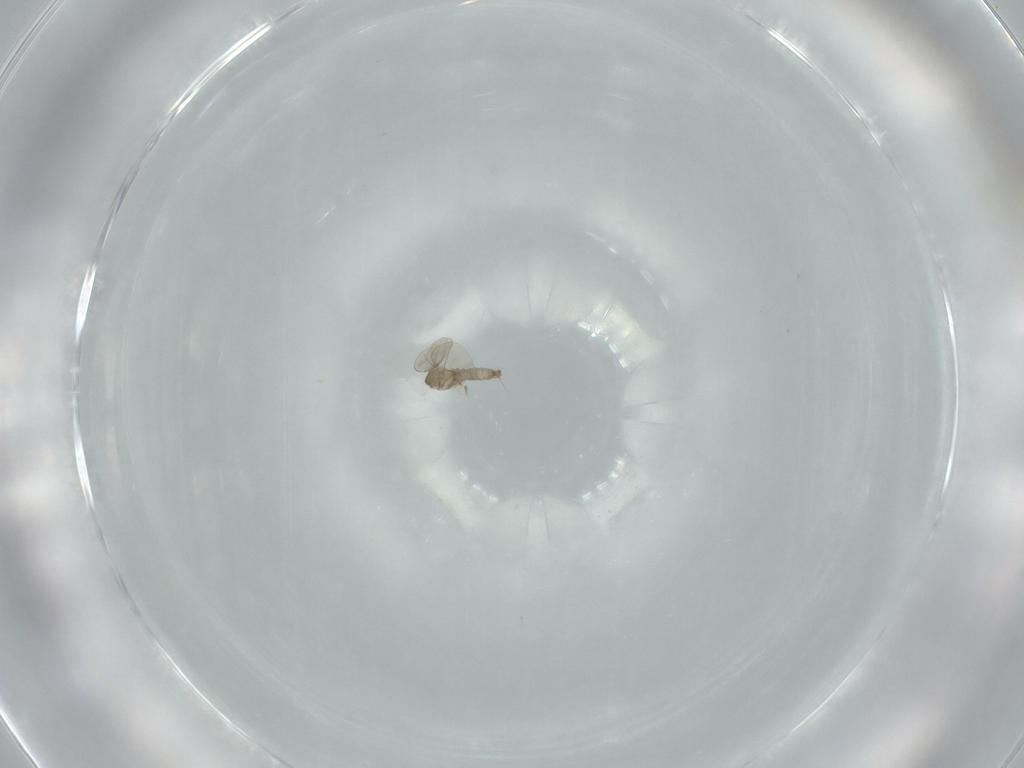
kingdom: Animalia
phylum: Arthropoda
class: Insecta
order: Diptera
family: Cecidomyiidae
